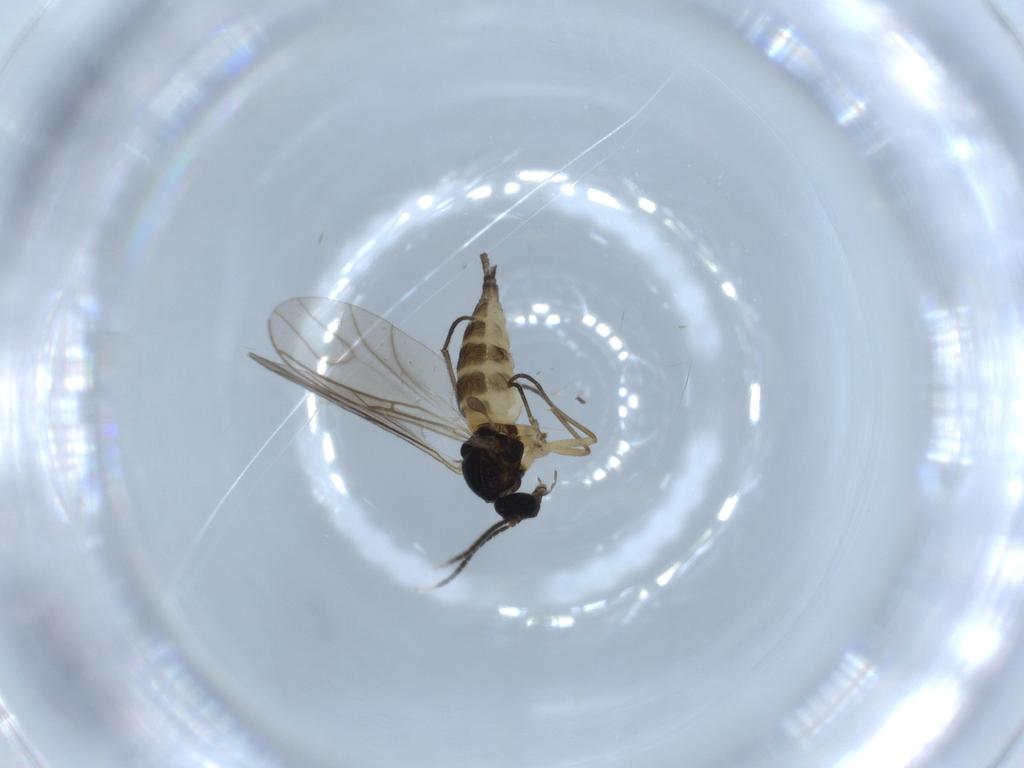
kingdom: Animalia
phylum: Arthropoda
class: Insecta
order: Diptera
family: Sciaridae
